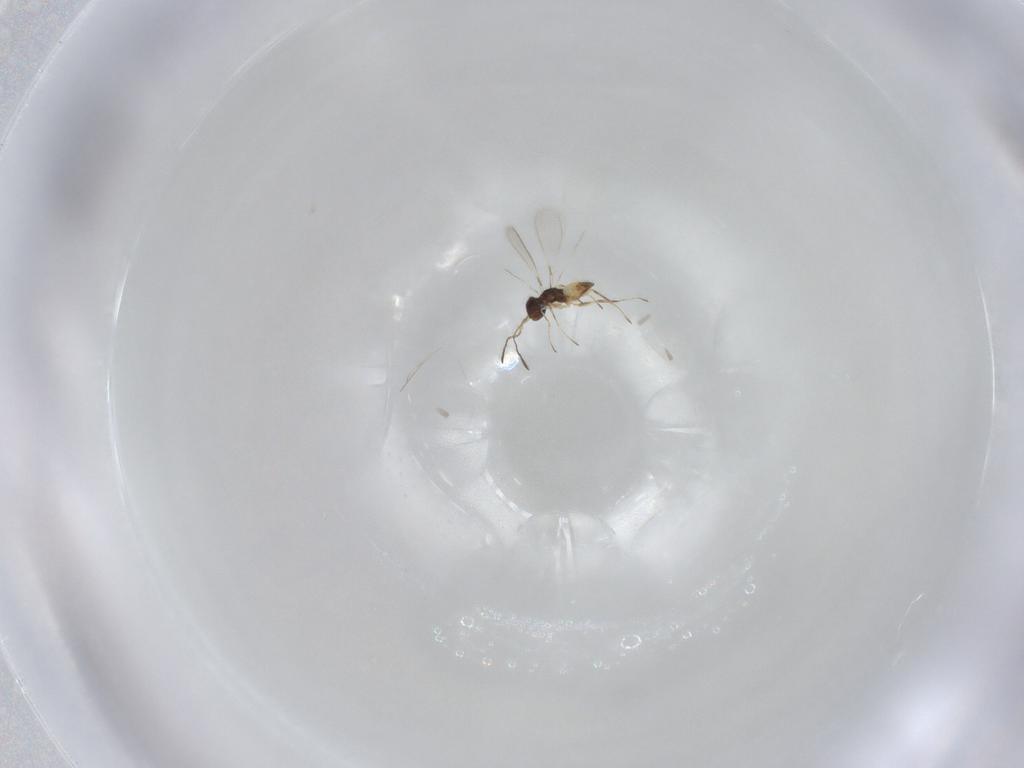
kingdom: Animalia
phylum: Arthropoda
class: Insecta
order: Hymenoptera
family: Mymaridae
